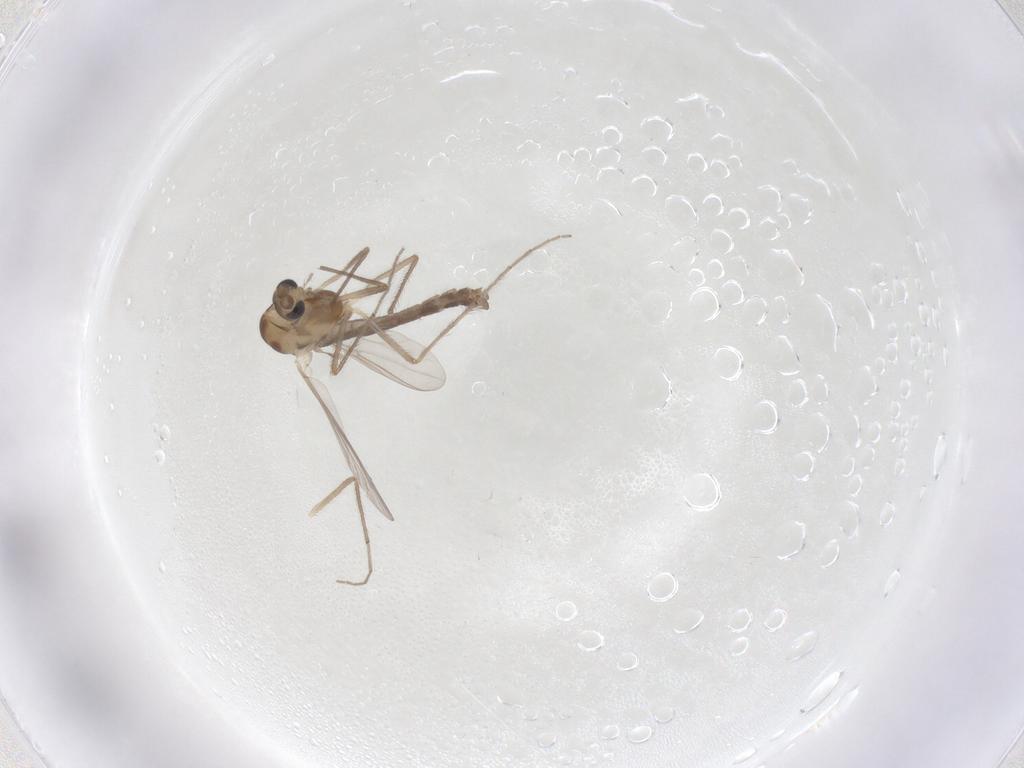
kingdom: Animalia
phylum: Arthropoda
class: Insecta
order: Diptera
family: Chironomidae
